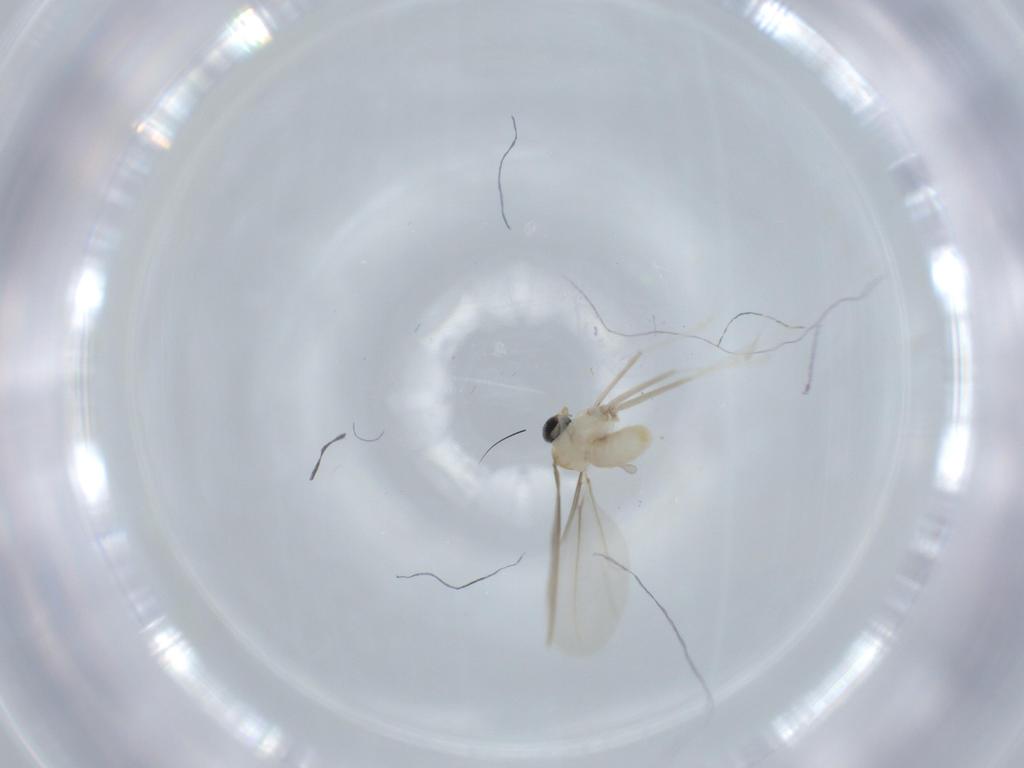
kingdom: Animalia
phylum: Arthropoda
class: Insecta
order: Diptera
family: Cecidomyiidae
